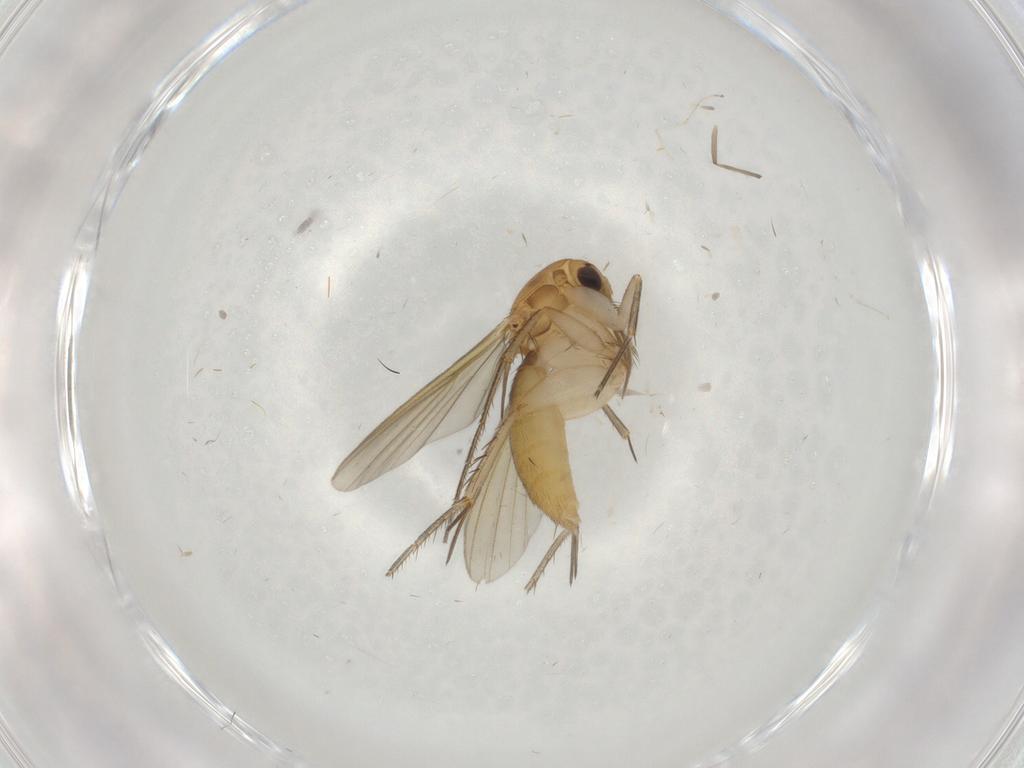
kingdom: Animalia
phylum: Arthropoda
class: Insecta
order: Diptera
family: Mycetophilidae
